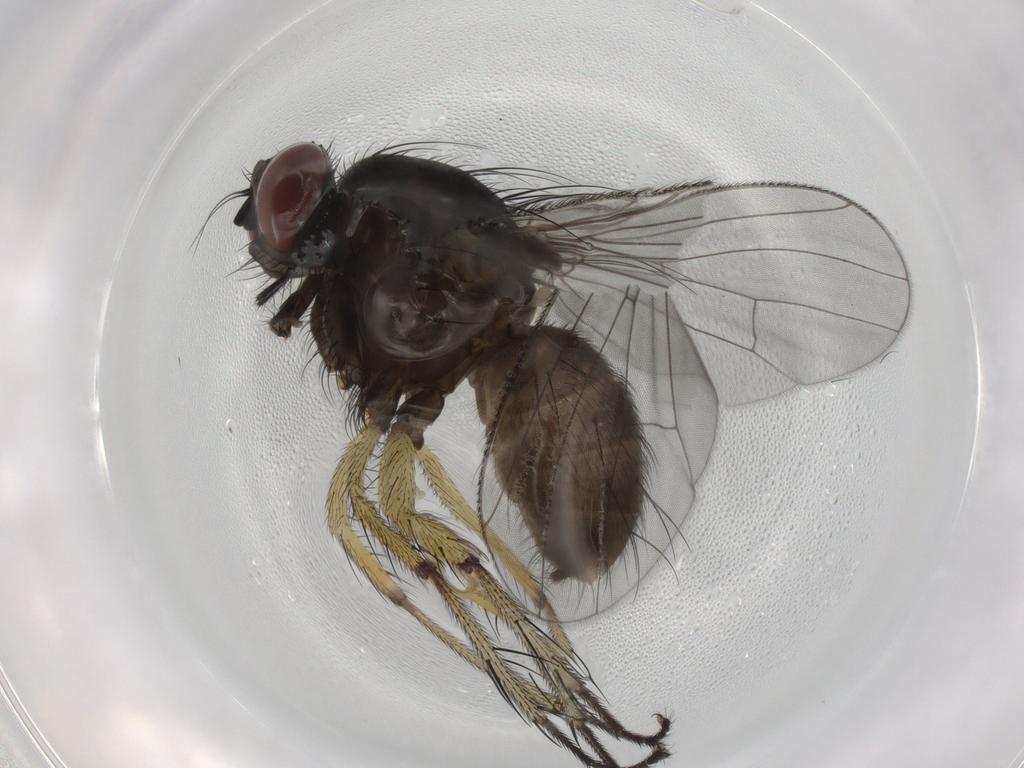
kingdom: Animalia
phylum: Arthropoda
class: Insecta
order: Diptera
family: Muscidae
